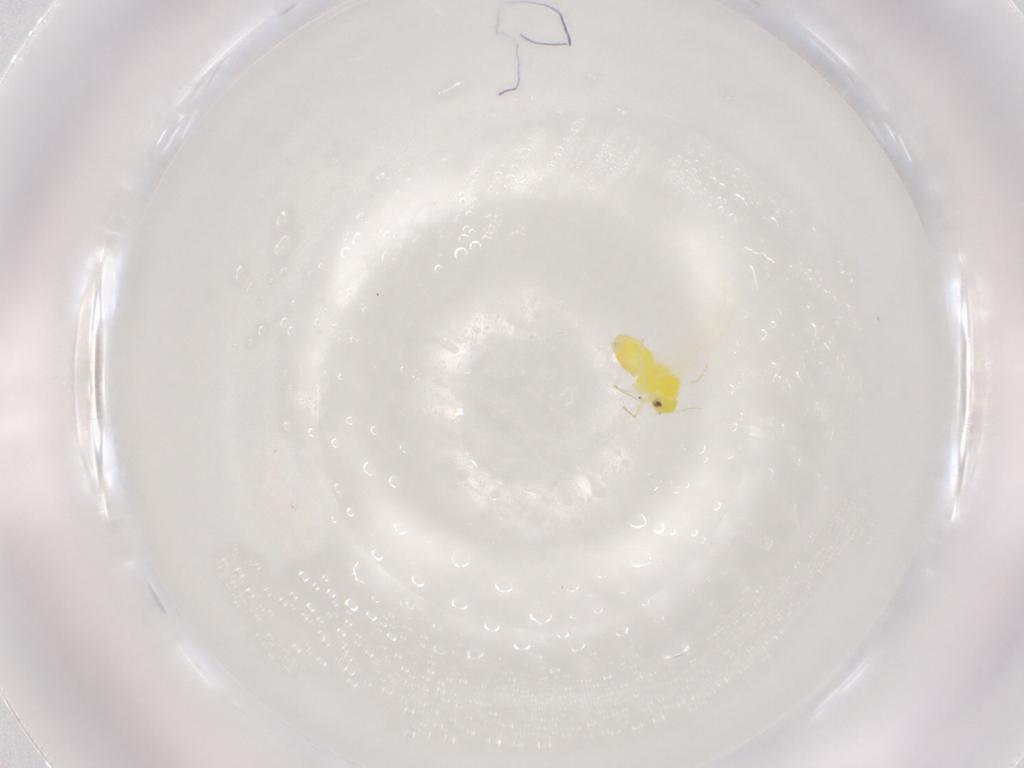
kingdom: Animalia
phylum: Arthropoda
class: Insecta
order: Hemiptera
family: Aleyrodidae
